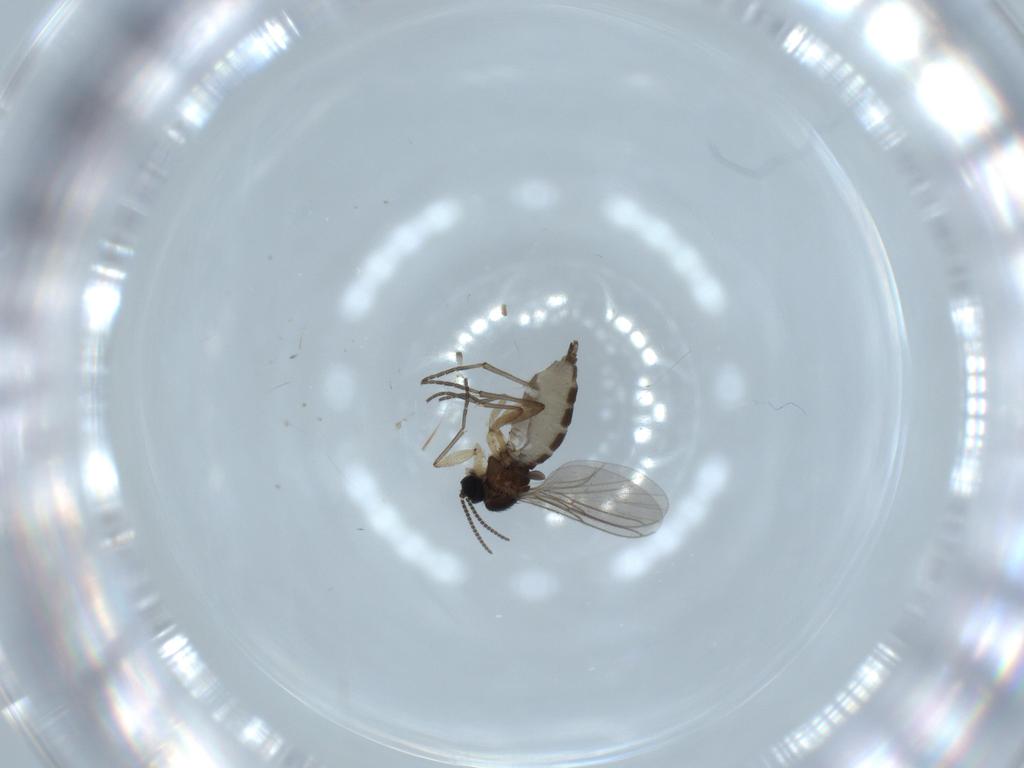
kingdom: Animalia
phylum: Arthropoda
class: Insecta
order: Diptera
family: Sciaridae
